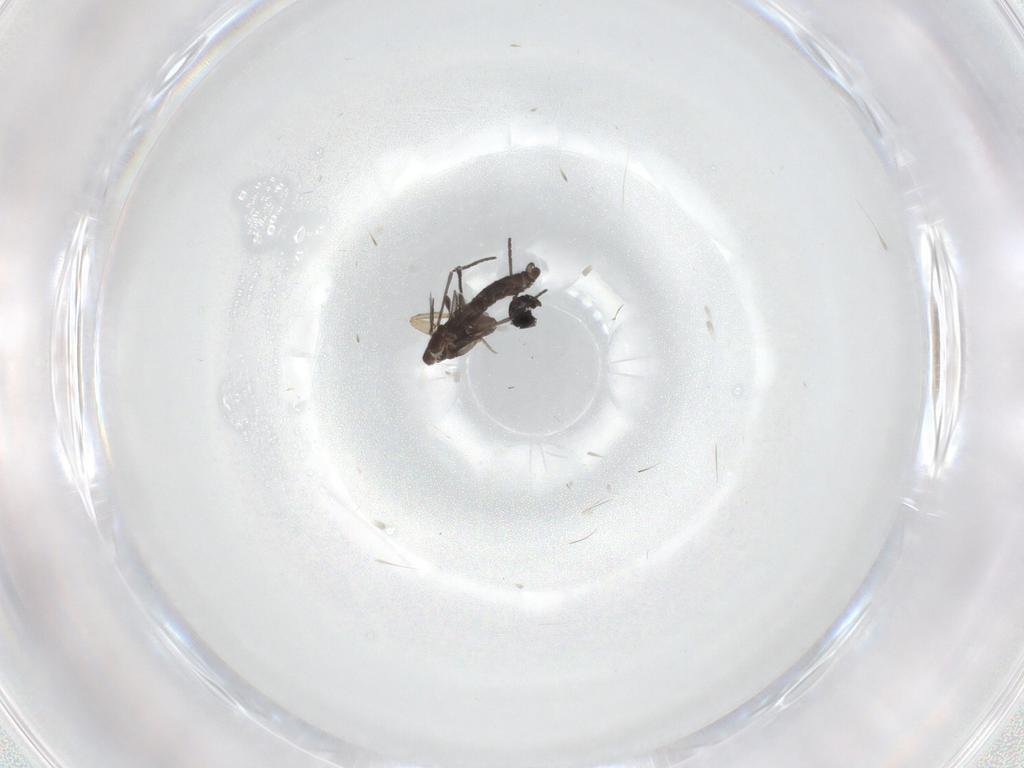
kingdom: Animalia
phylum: Arthropoda
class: Insecta
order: Diptera
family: Sciaridae
